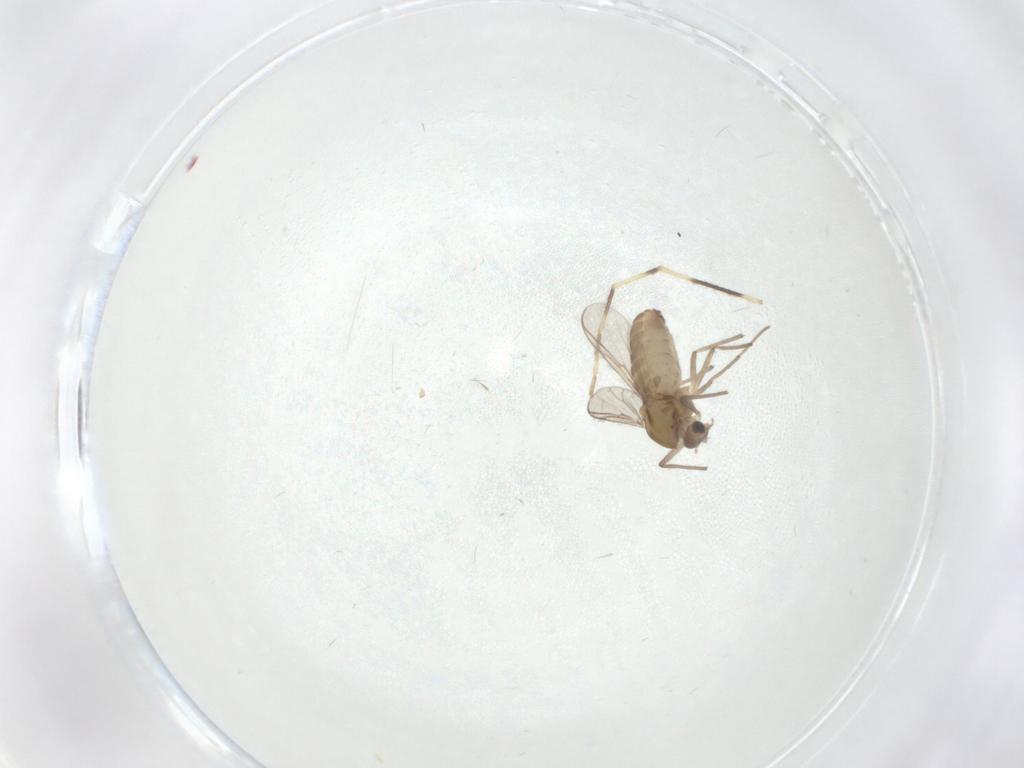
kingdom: Animalia
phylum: Arthropoda
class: Insecta
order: Diptera
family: Chironomidae
